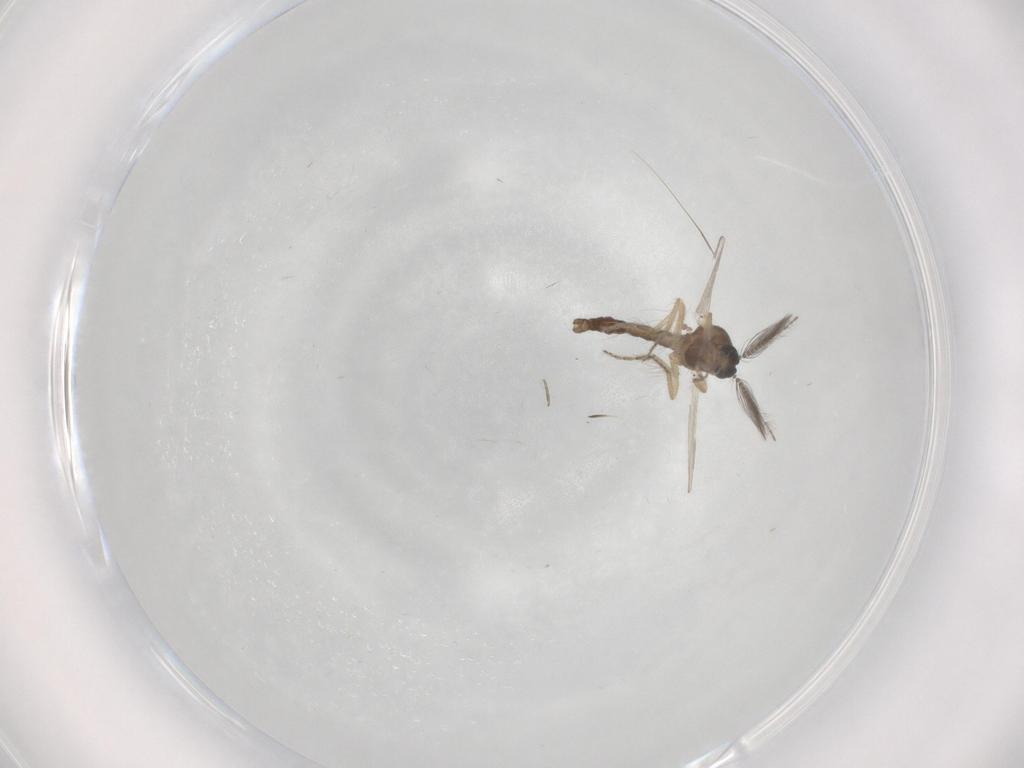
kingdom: Animalia
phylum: Arthropoda
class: Insecta
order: Diptera
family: Ceratopogonidae
